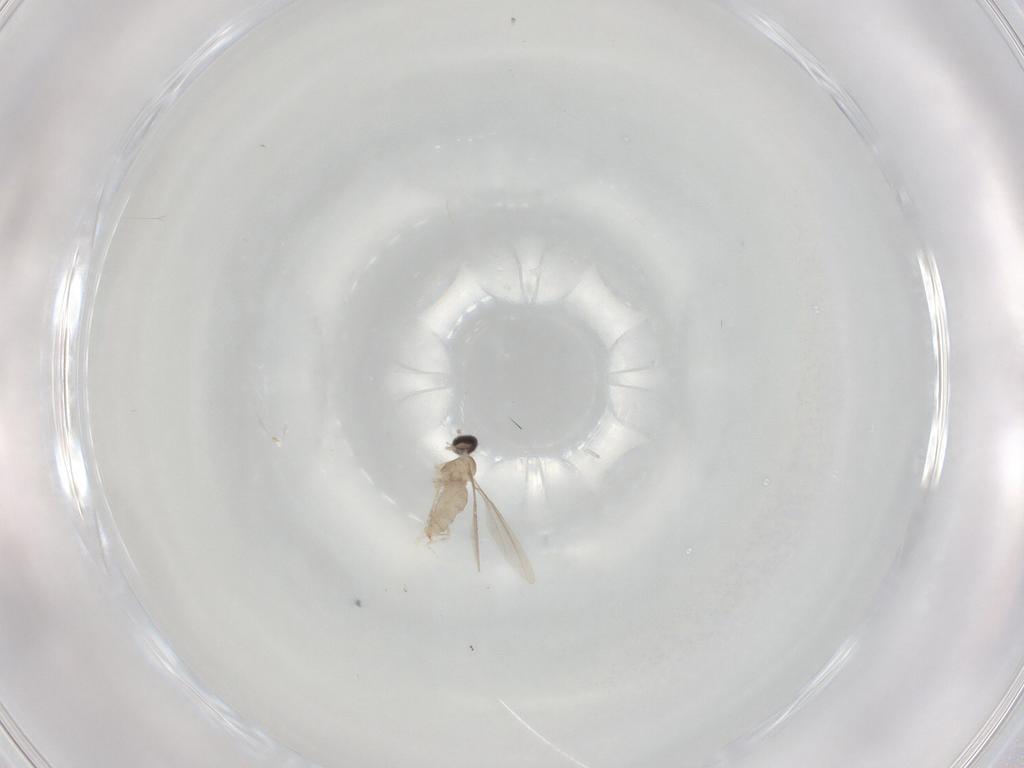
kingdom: Animalia
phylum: Arthropoda
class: Insecta
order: Diptera
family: Cecidomyiidae
